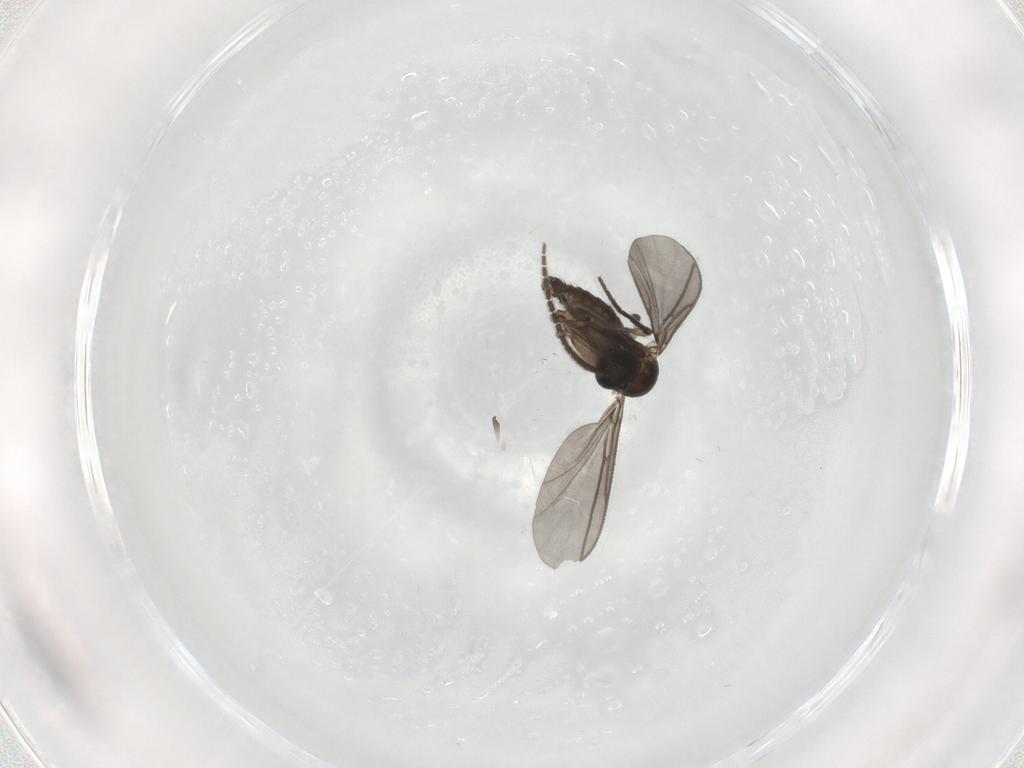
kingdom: Animalia
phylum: Arthropoda
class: Insecta
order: Diptera
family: Sciaridae
